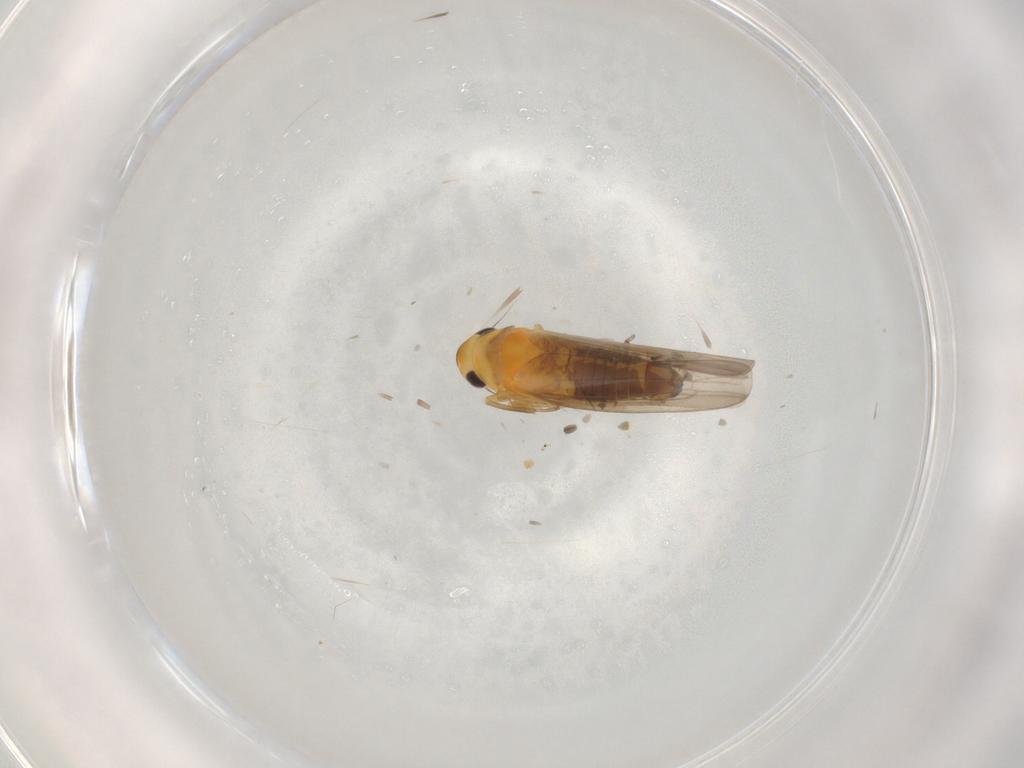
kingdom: Animalia
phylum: Arthropoda
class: Insecta
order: Hemiptera
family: Cicadellidae
